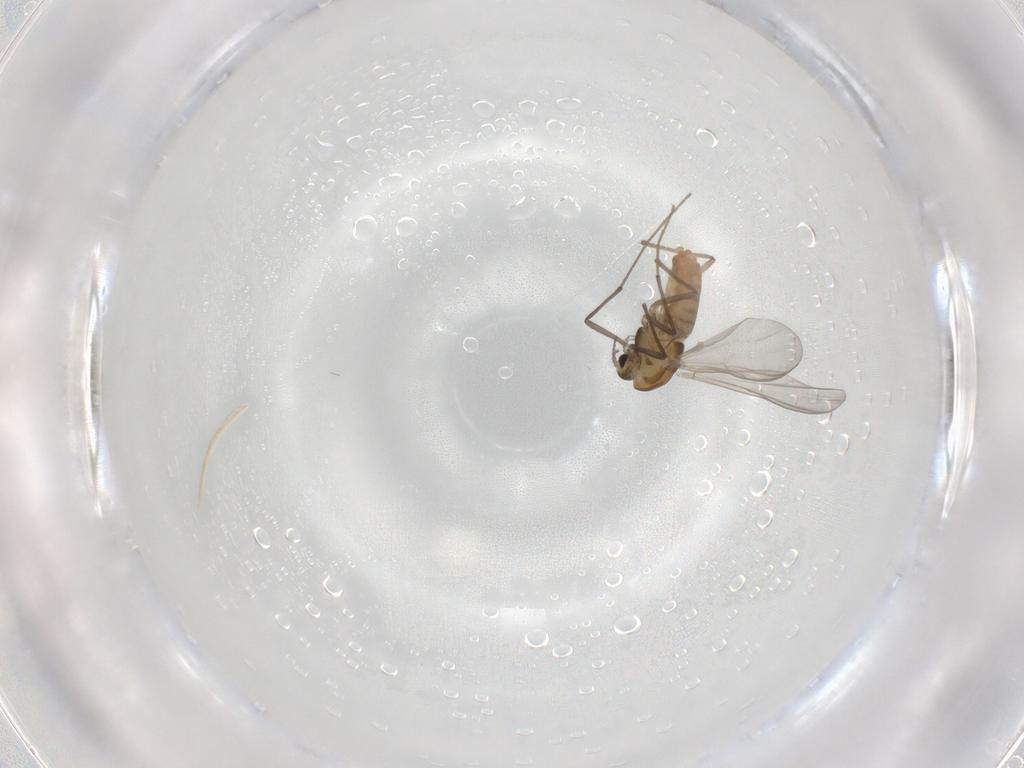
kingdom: Animalia
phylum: Arthropoda
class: Insecta
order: Diptera
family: Chironomidae
